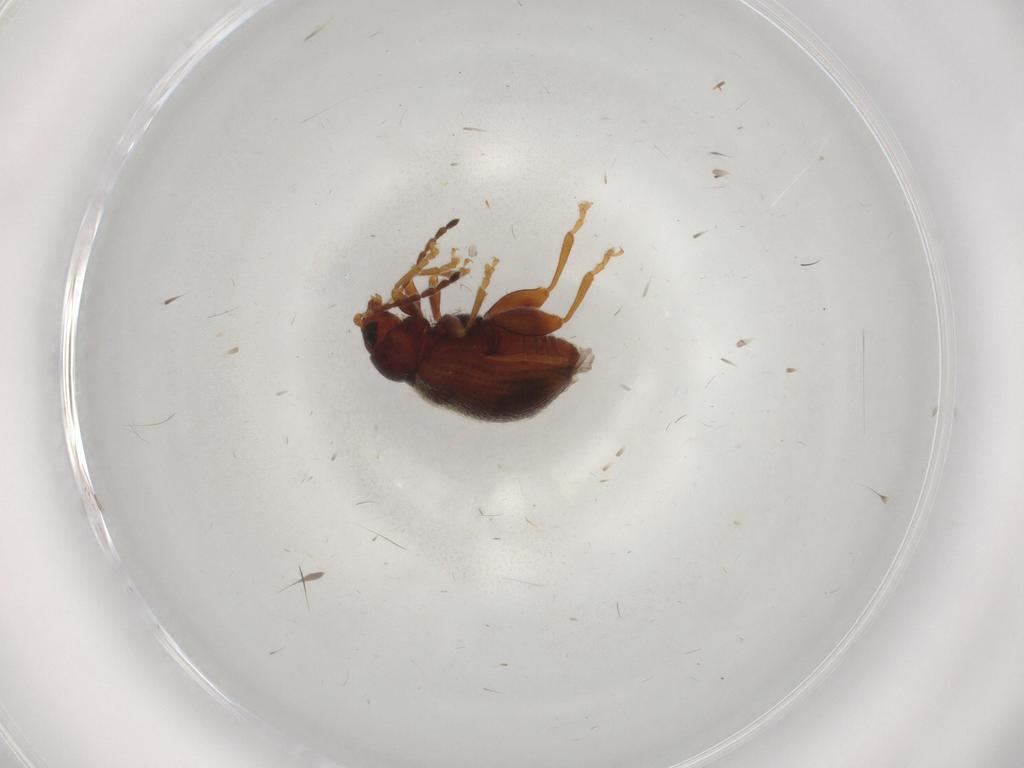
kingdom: Animalia
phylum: Arthropoda
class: Insecta
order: Coleoptera
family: Chrysomelidae
